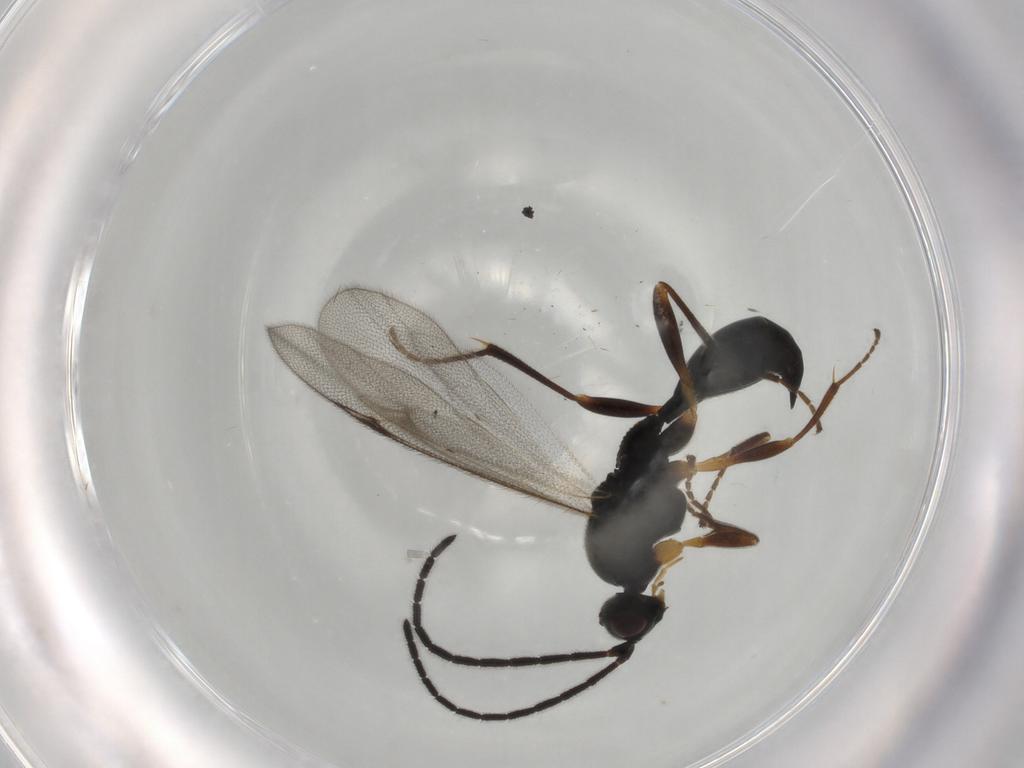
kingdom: Animalia
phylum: Arthropoda
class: Insecta
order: Hymenoptera
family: Proctotrupidae
